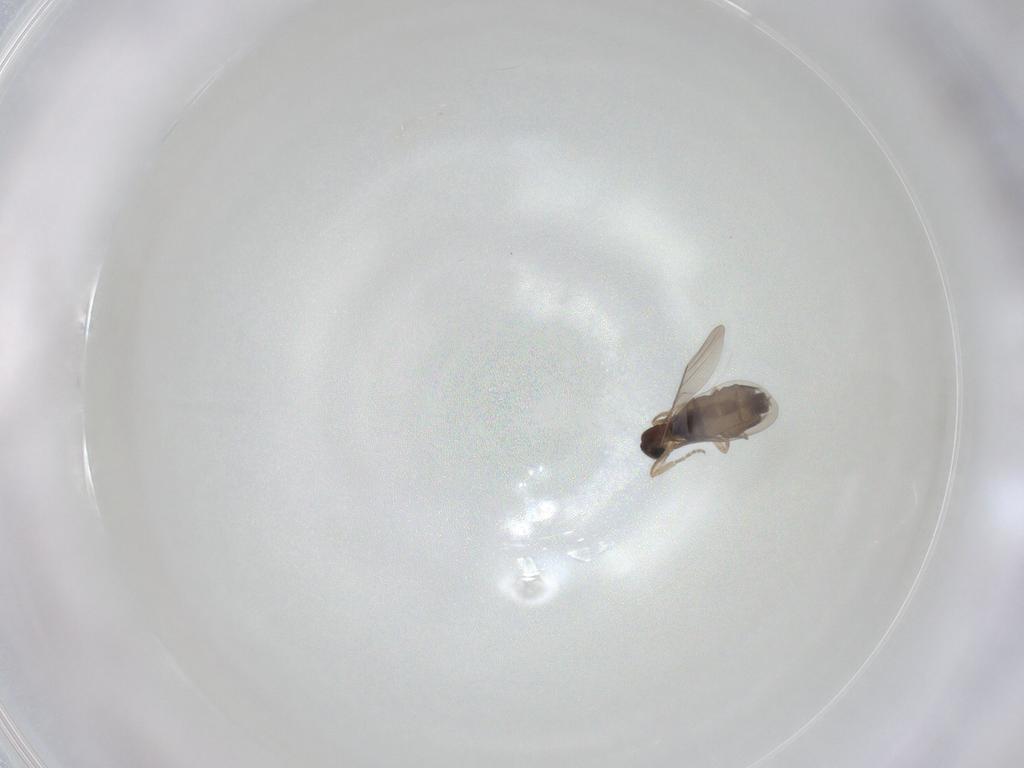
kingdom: Animalia
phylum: Arthropoda
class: Insecta
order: Diptera
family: Phoridae
